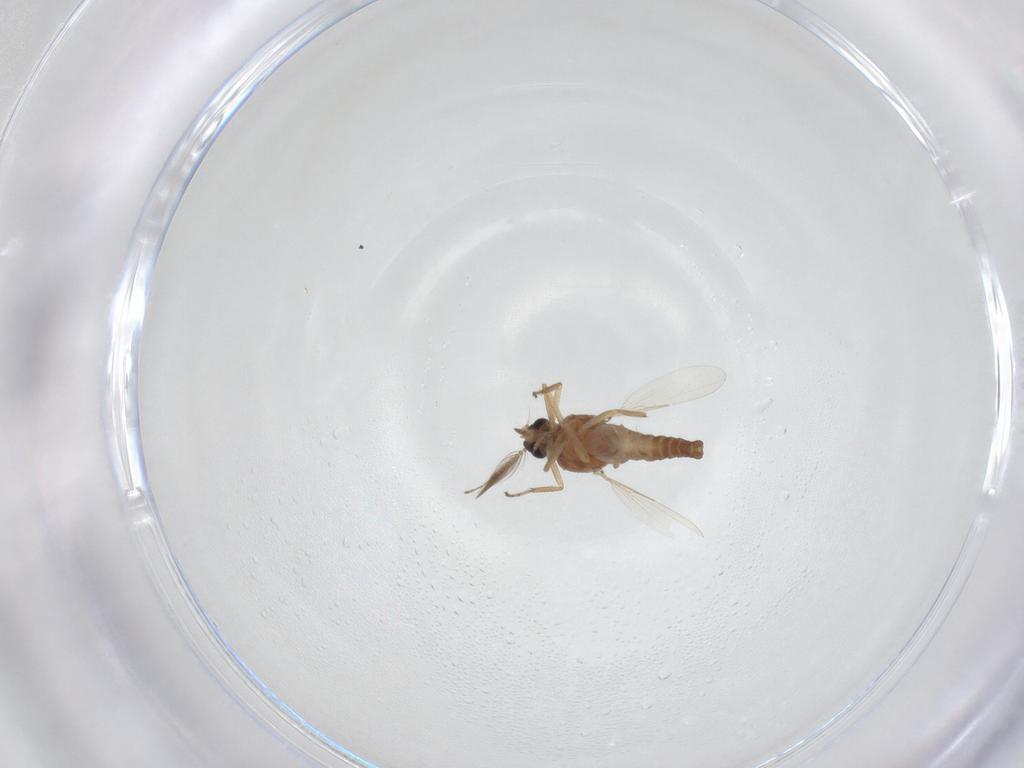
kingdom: Animalia
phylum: Arthropoda
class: Insecta
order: Diptera
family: Ceratopogonidae
